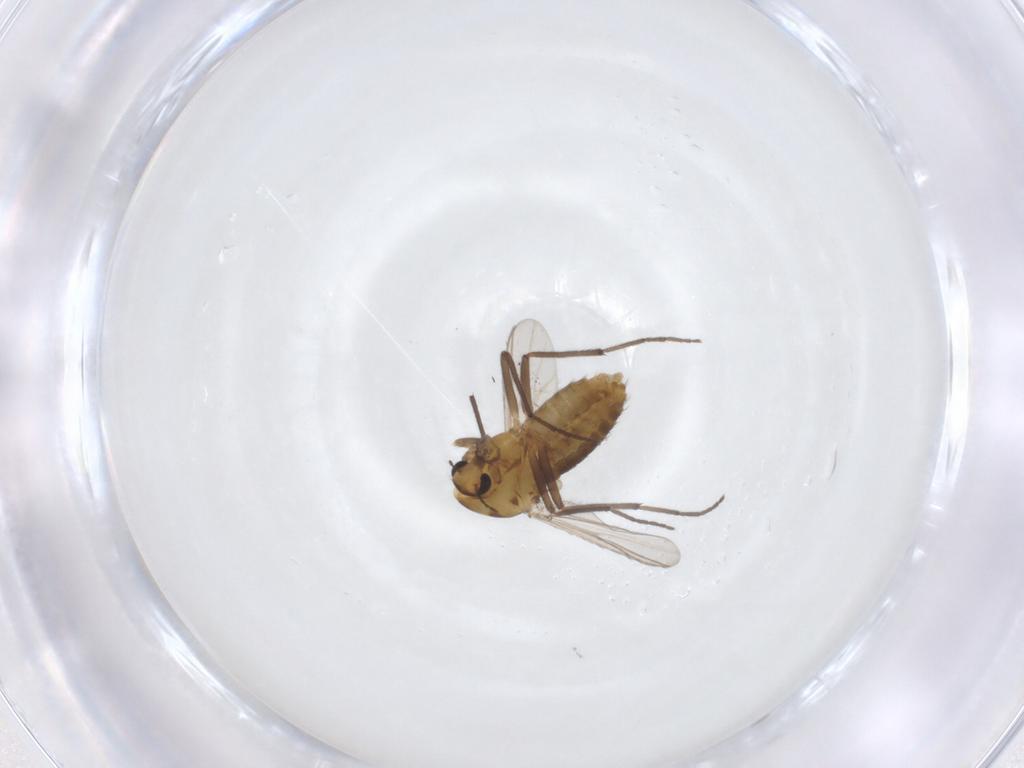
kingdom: Animalia
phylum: Arthropoda
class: Insecta
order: Diptera
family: Chironomidae
